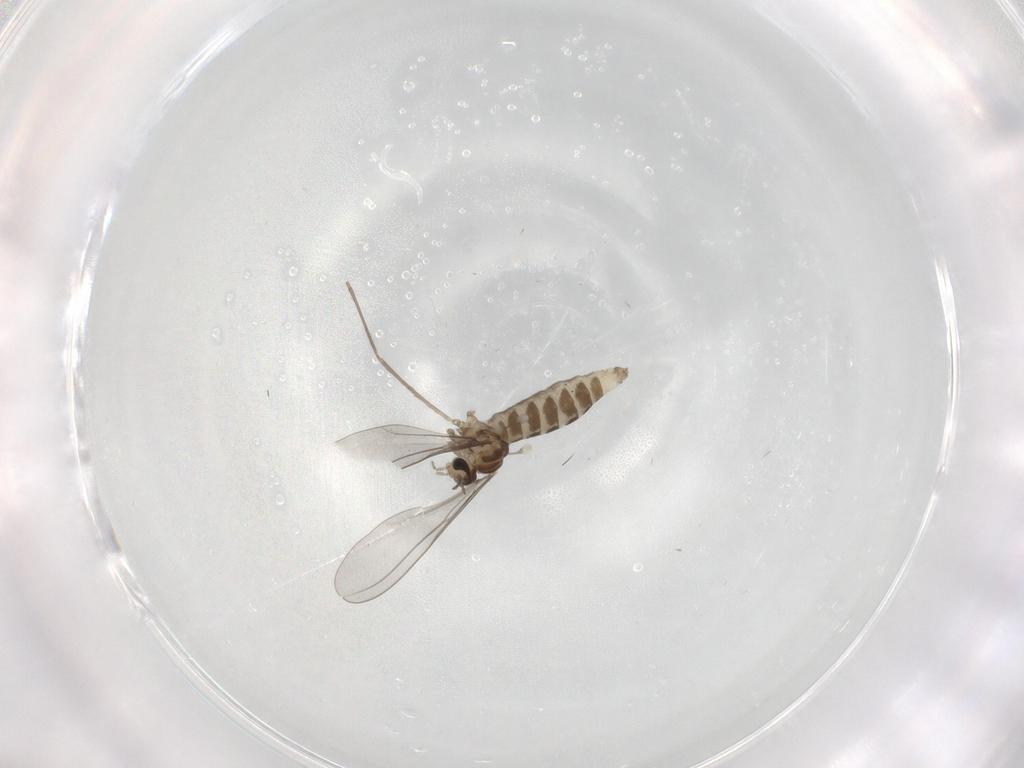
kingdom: Animalia
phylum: Arthropoda
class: Insecta
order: Diptera
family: Cecidomyiidae
